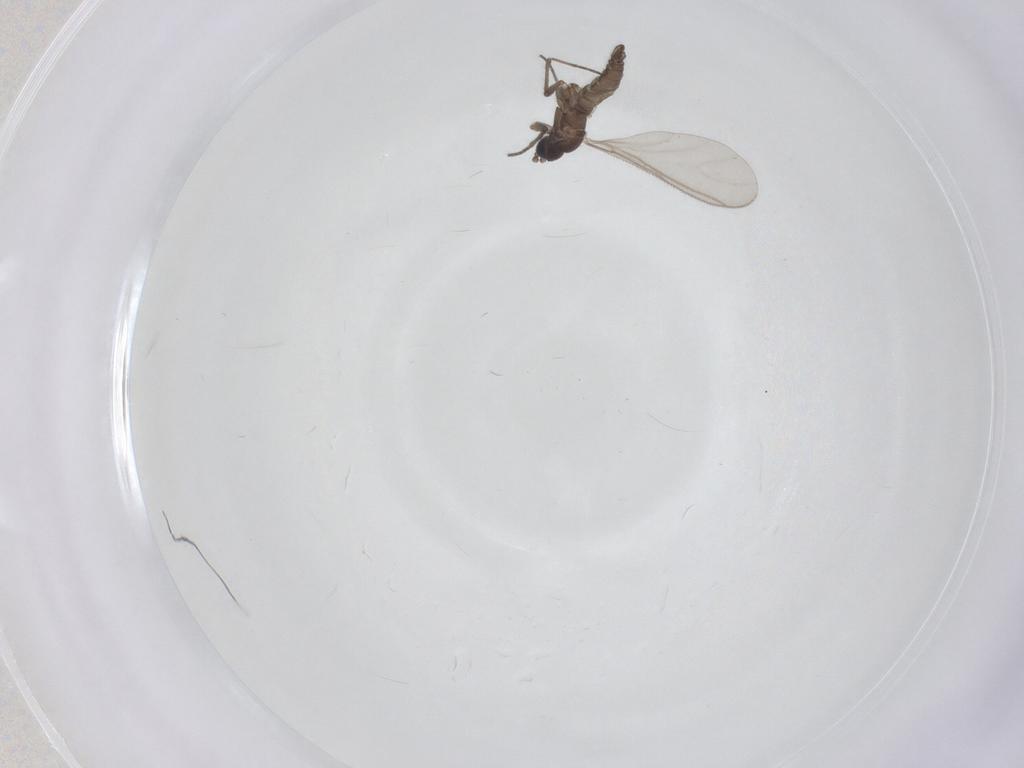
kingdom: Animalia
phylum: Arthropoda
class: Insecta
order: Diptera
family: Sciaridae
